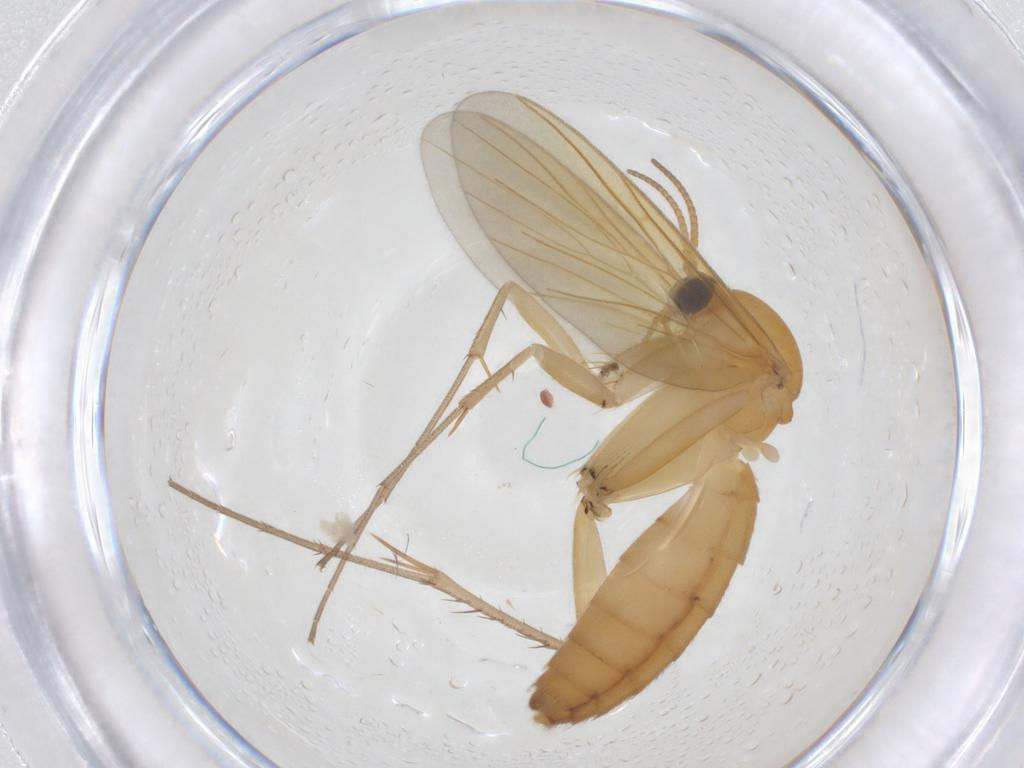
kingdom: Animalia
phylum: Arthropoda
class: Insecta
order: Diptera
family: Mycetophilidae
